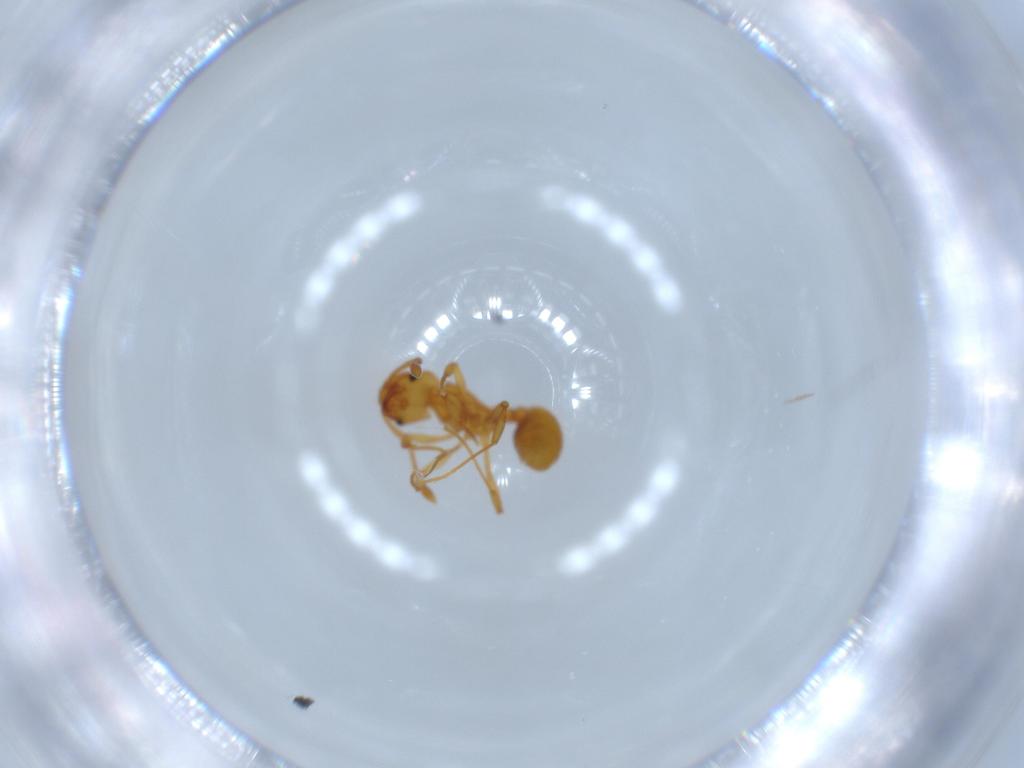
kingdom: Animalia
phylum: Arthropoda
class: Insecta
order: Hymenoptera
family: Formicidae
